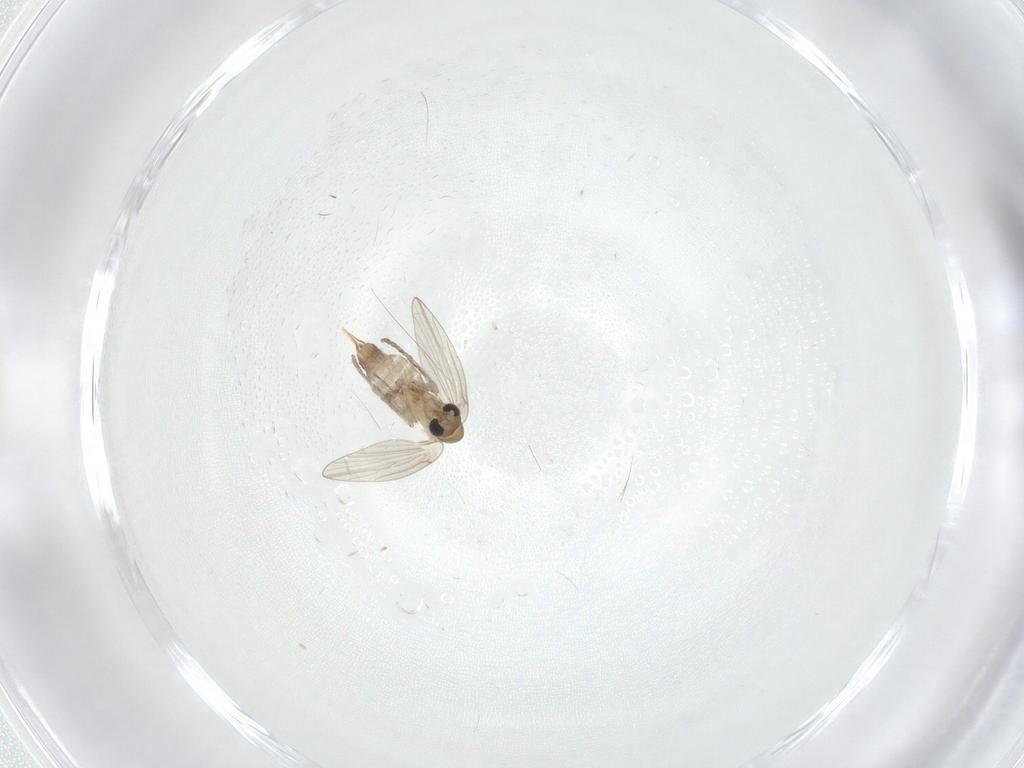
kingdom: Animalia
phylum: Arthropoda
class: Insecta
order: Diptera
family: Psychodidae
